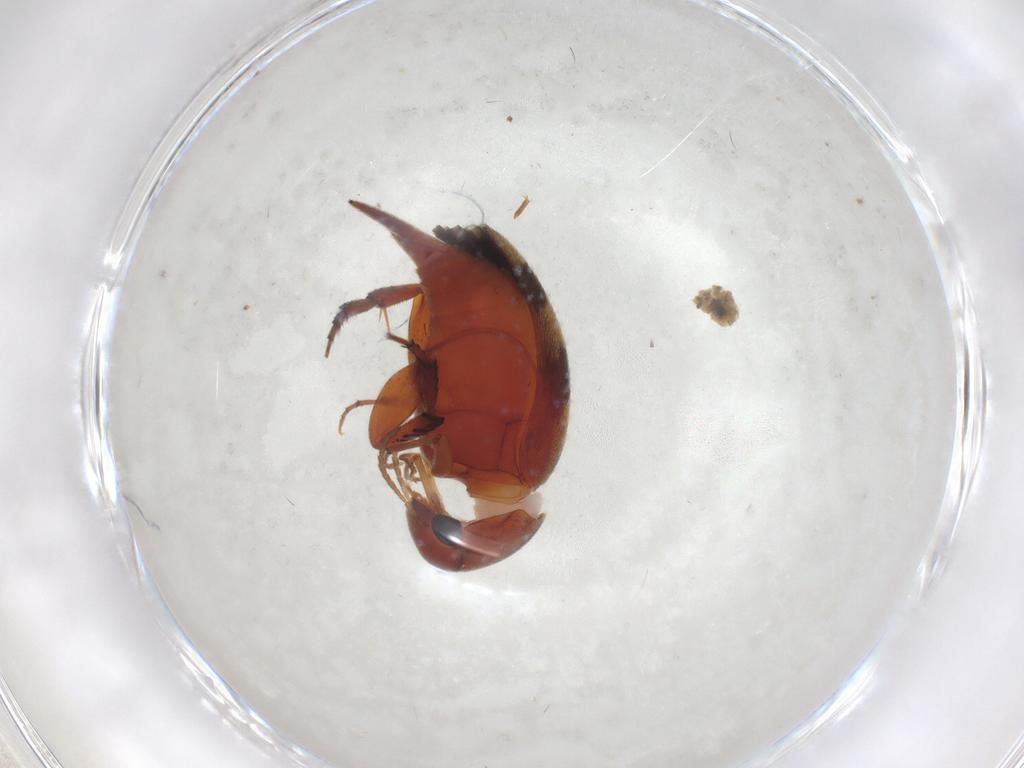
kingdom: Animalia
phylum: Arthropoda
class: Insecta
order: Coleoptera
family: Mordellidae
